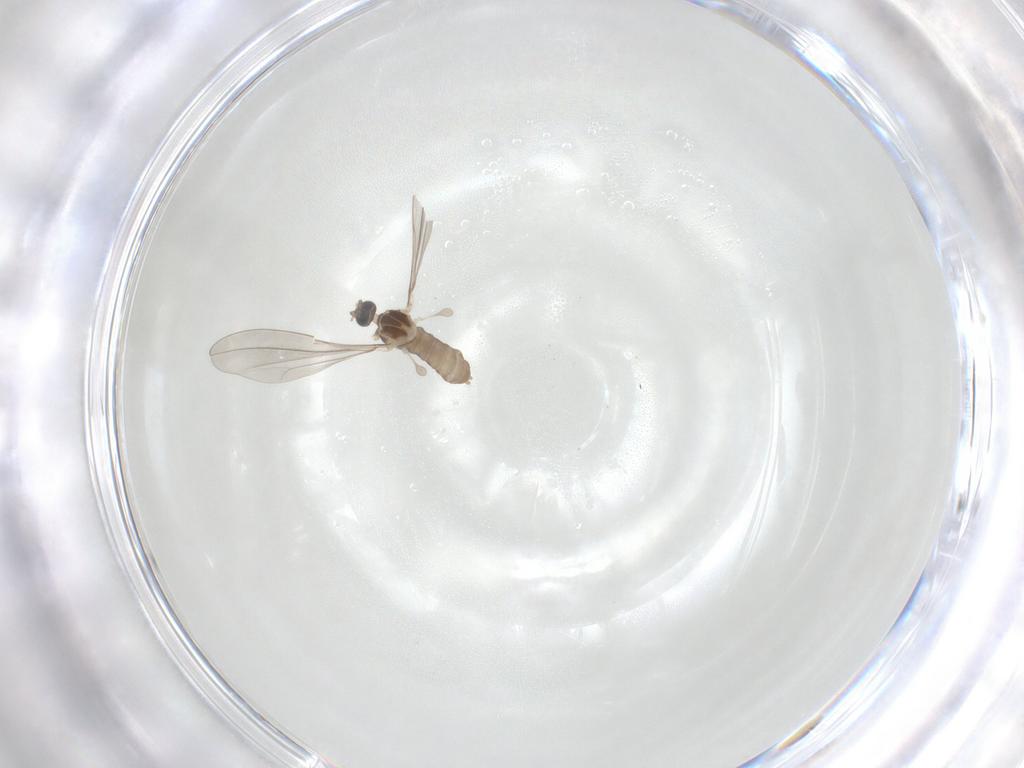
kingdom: Animalia
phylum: Arthropoda
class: Insecta
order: Diptera
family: Cecidomyiidae
